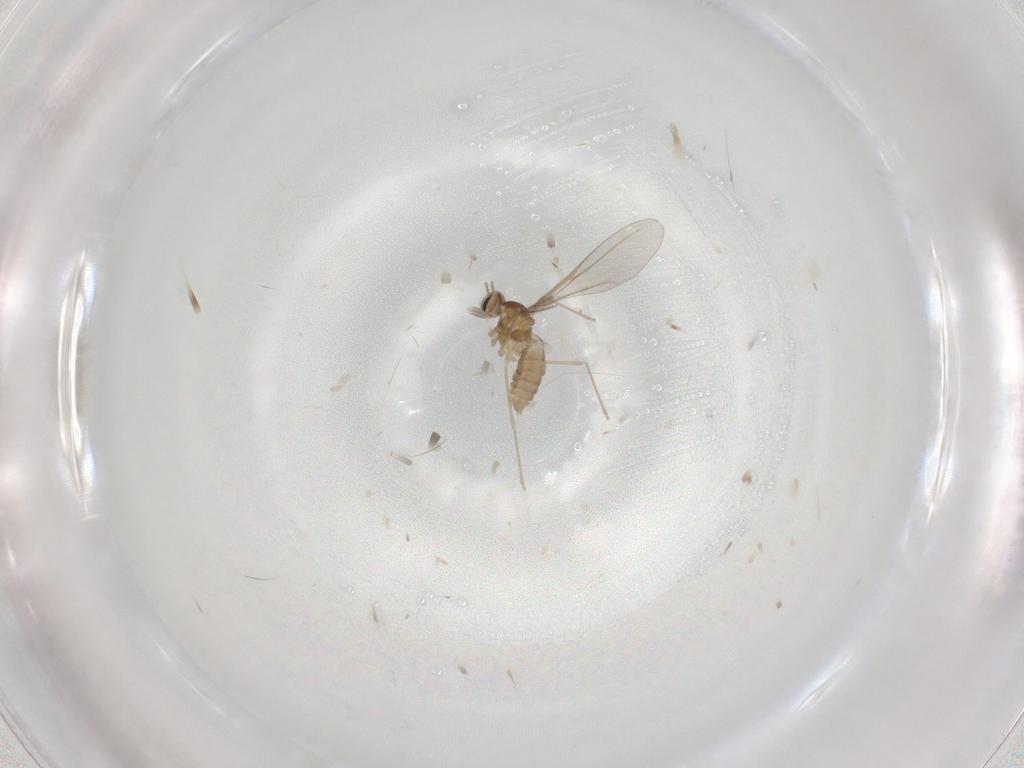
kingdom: Animalia
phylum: Arthropoda
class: Insecta
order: Diptera
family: Cecidomyiidae
